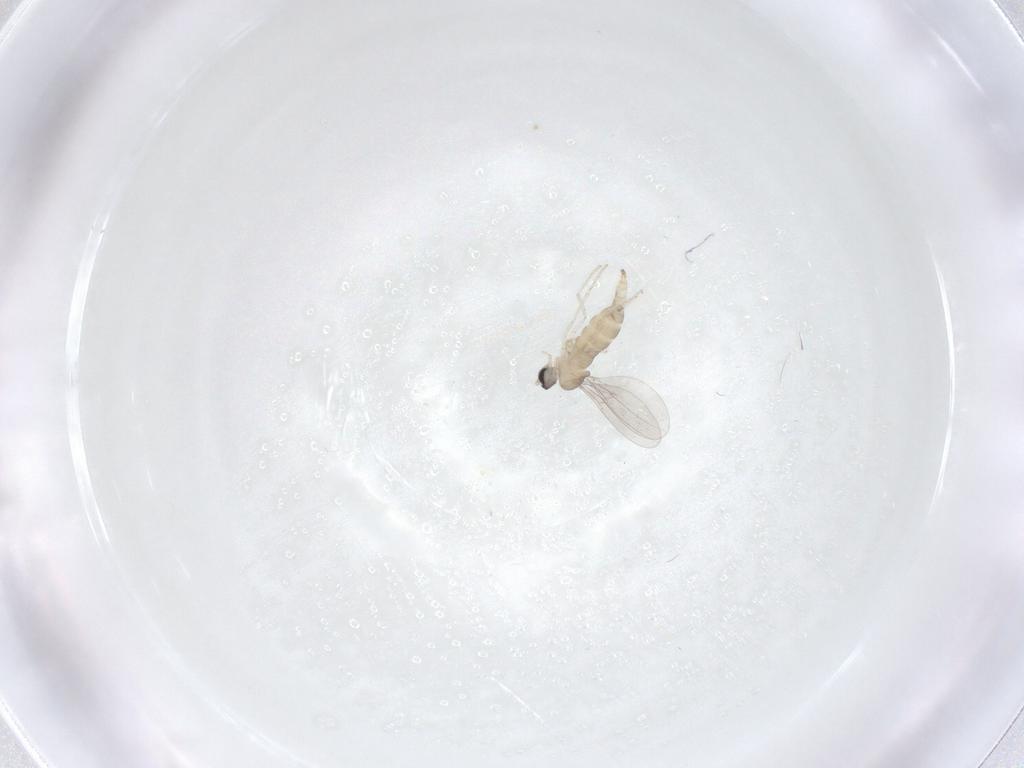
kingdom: Animalia
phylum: Arthropoda
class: Insecta
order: Diptera
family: Cecidomyiidae
